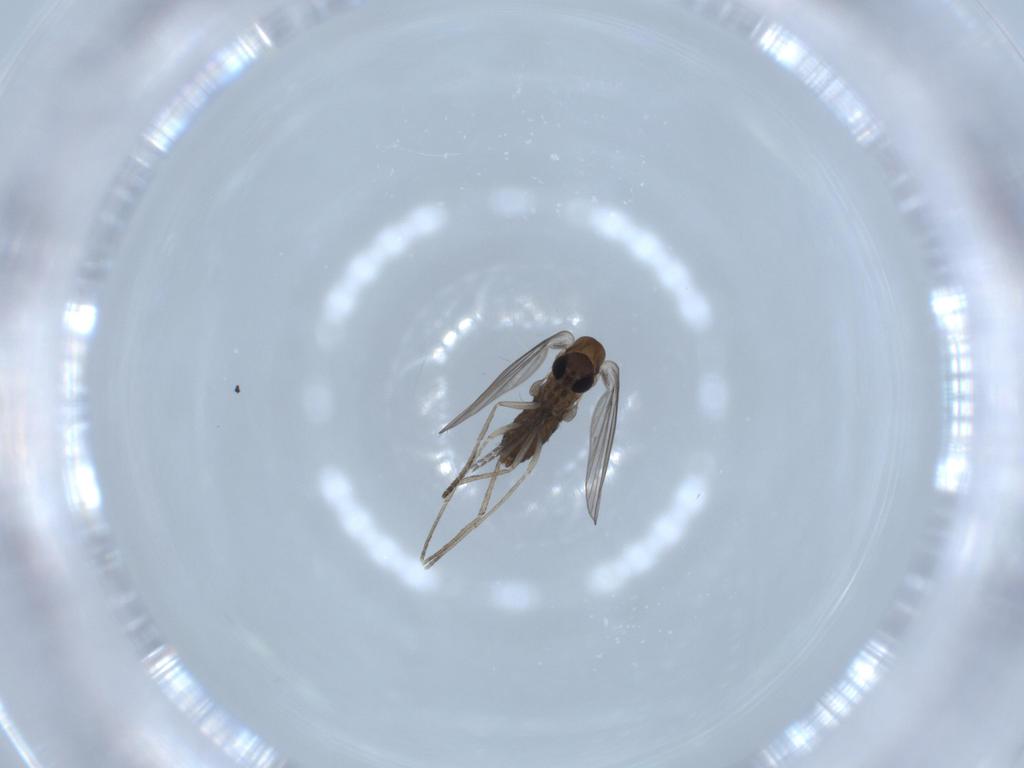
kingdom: Animalia
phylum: Arthropoda
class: Insecta
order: Diptera
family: Psychodidae
